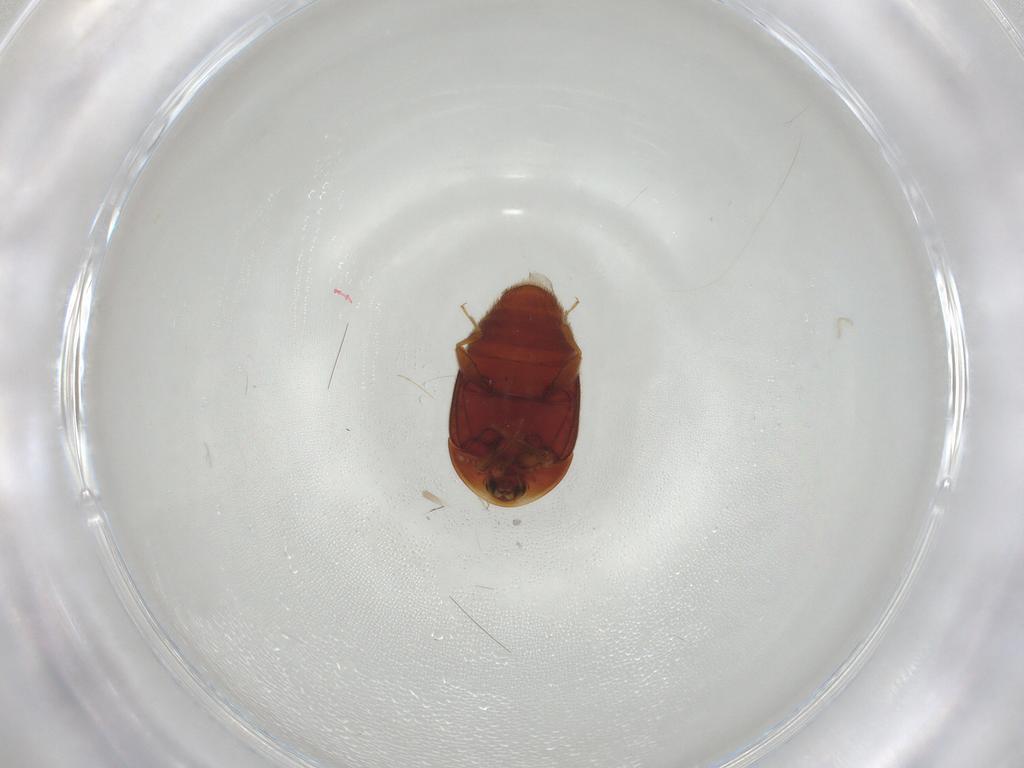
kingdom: Animalia
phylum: Arthropoda
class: Insecta
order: Coleoptera
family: Corylophidae
